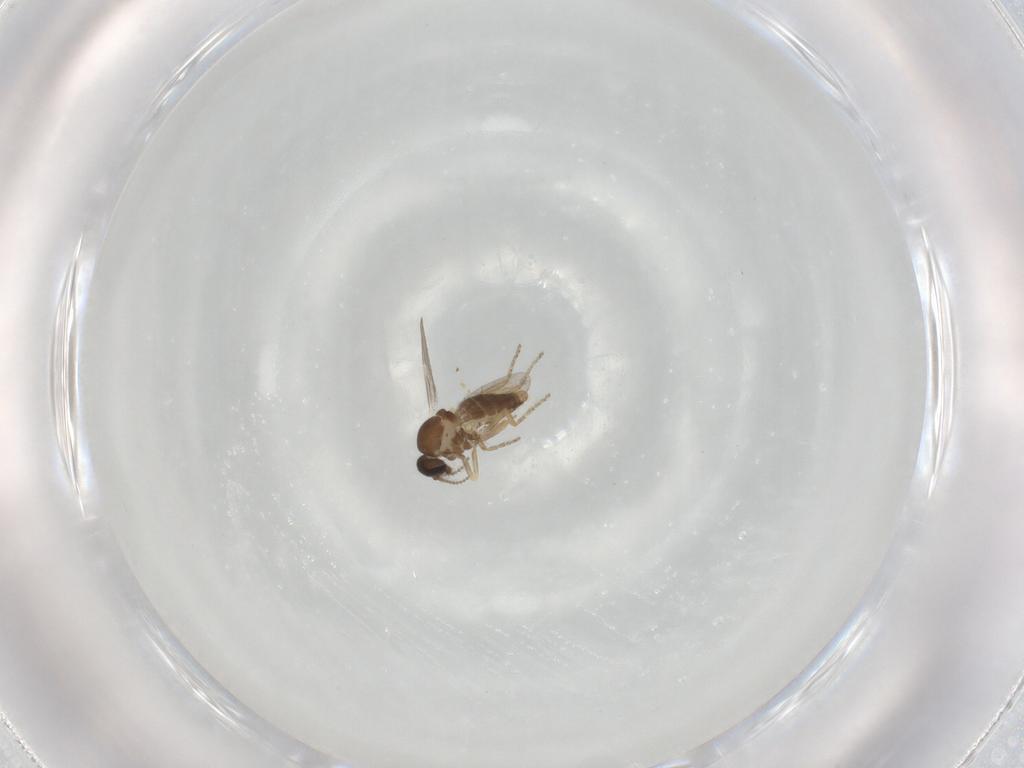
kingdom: Animalia
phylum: Arthropoda
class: Insecta
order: Diptera
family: Ceratopogonidae
